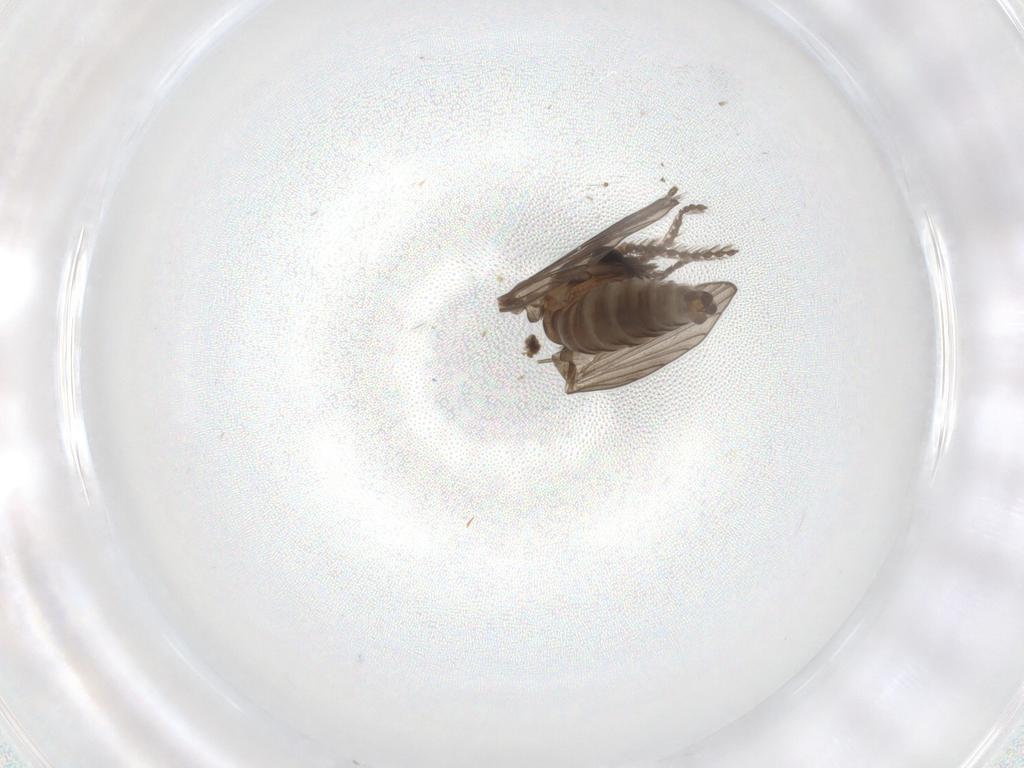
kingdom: Animalia
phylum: Arthropoda
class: Insecta
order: Diptera
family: Psychodidae
